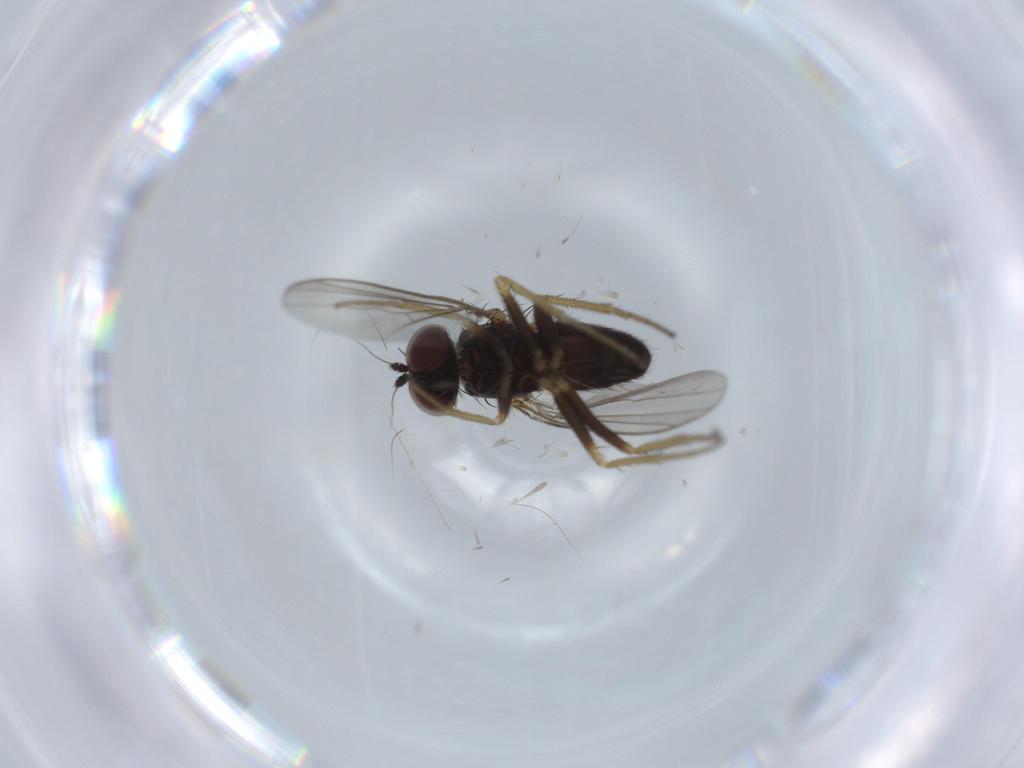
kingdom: Animalia
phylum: Arthropoda
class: Insecta
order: Diptera
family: Dolichopodidae
